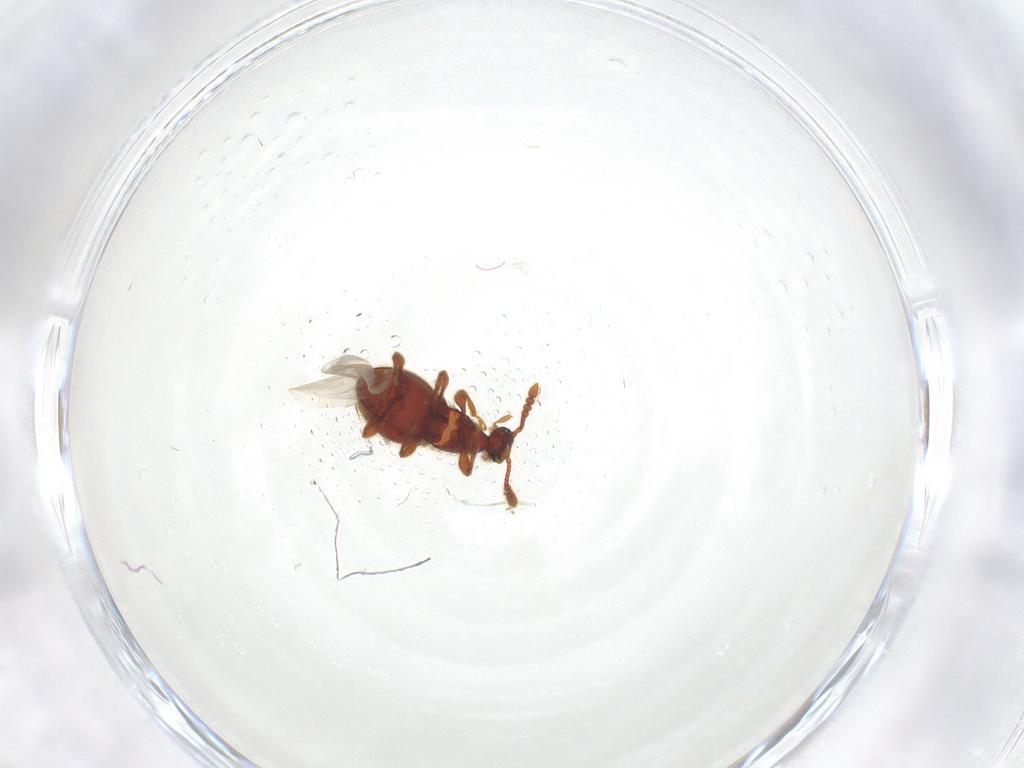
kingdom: Animalia
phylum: Arthropoda
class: Insecta
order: Coleoptera
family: Staphylinidae
